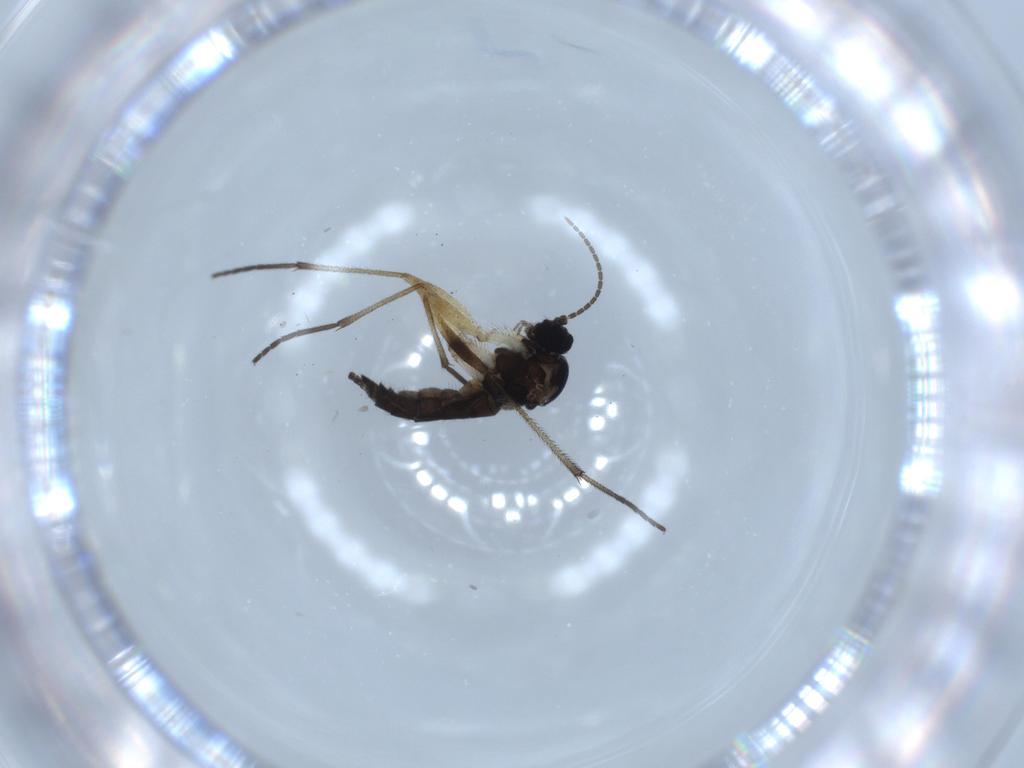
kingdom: Animalia
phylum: Arthropoda
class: Insecta
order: Diptera
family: Sciaridae
